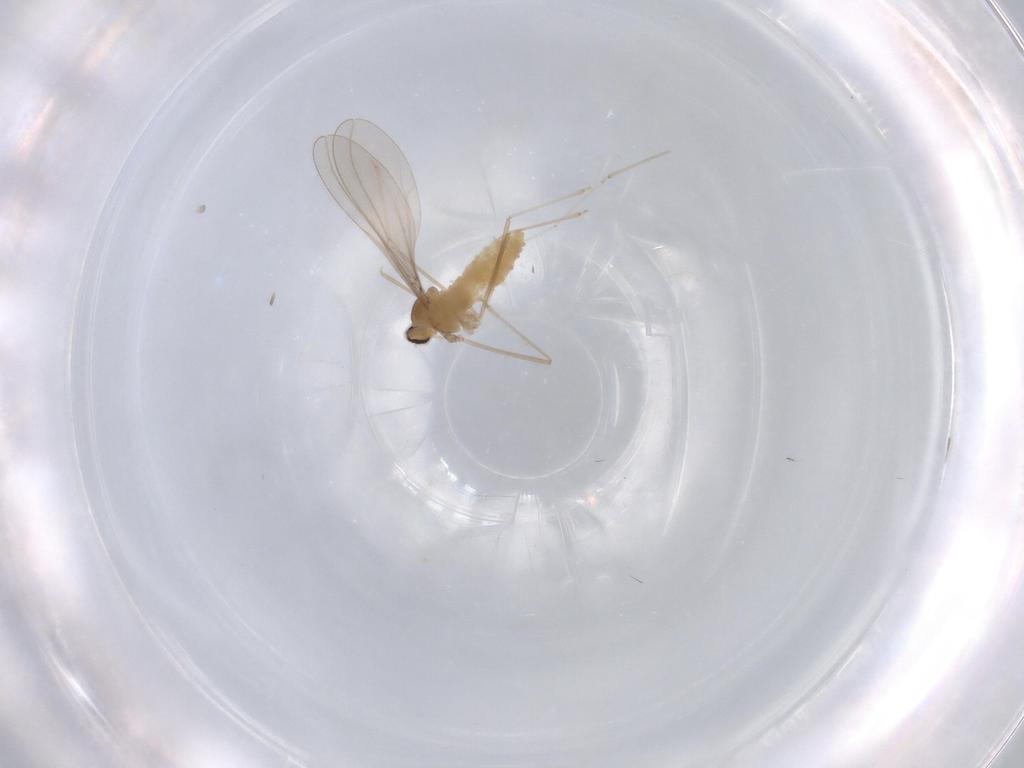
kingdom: Animalia
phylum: Arthropoda
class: Insecta
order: Diptera
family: Cecidomyiidae
